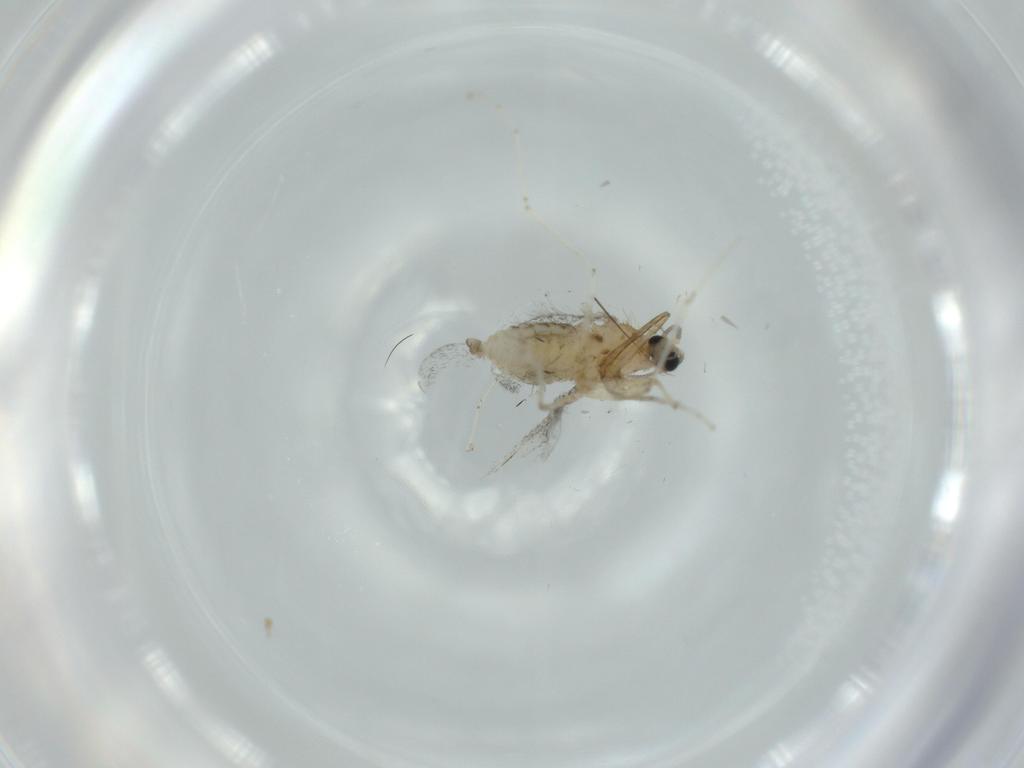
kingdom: Animalia
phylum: Arthropoda
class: Insecta
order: Diptera
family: Cecidomyiidae
